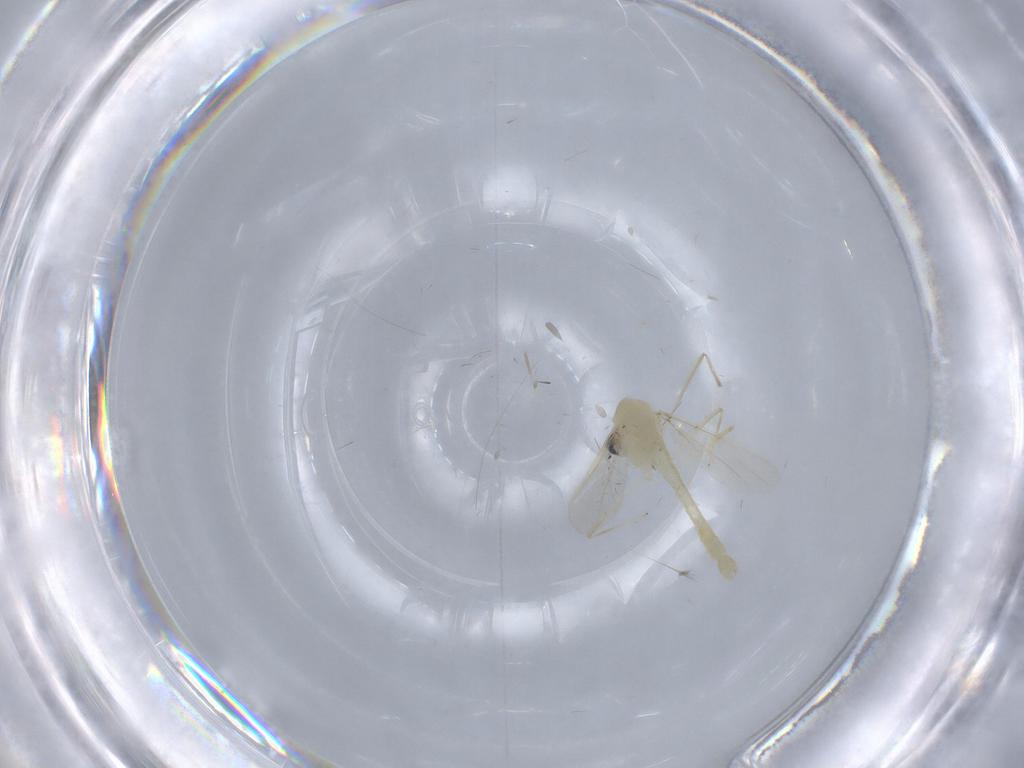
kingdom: Animalia
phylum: Arthropoda
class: Insecta
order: Diptera
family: Chironomidae
